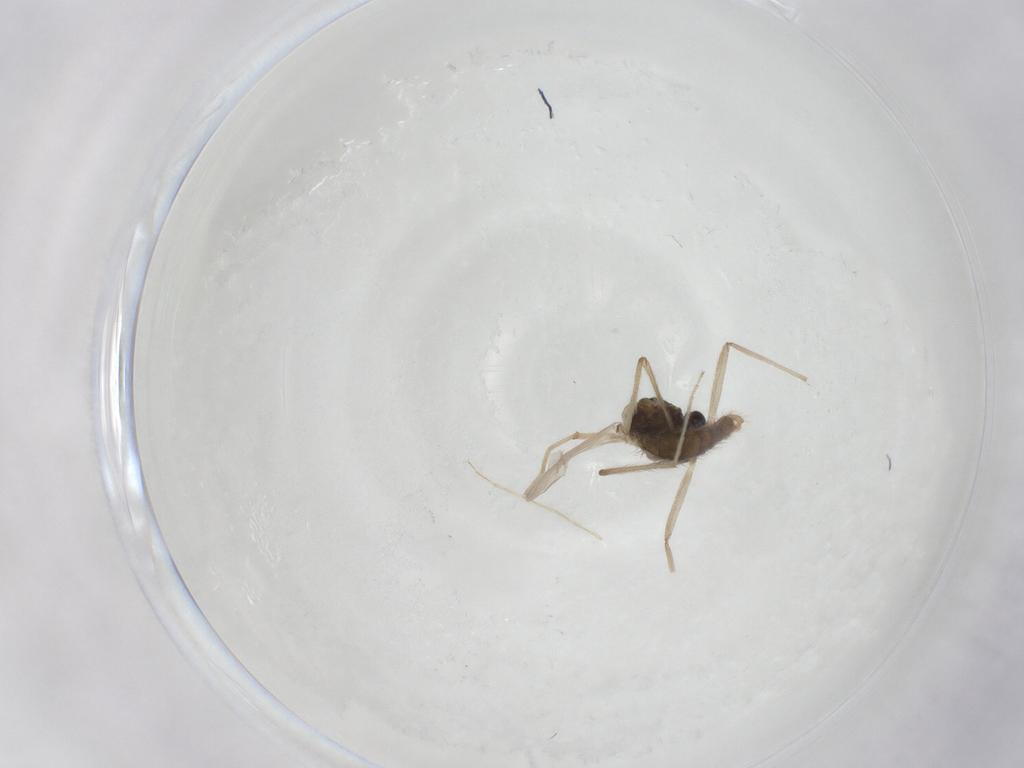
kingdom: Animalia
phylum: Arthropoda
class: Insecta
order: Diptera
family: Chironomidae
